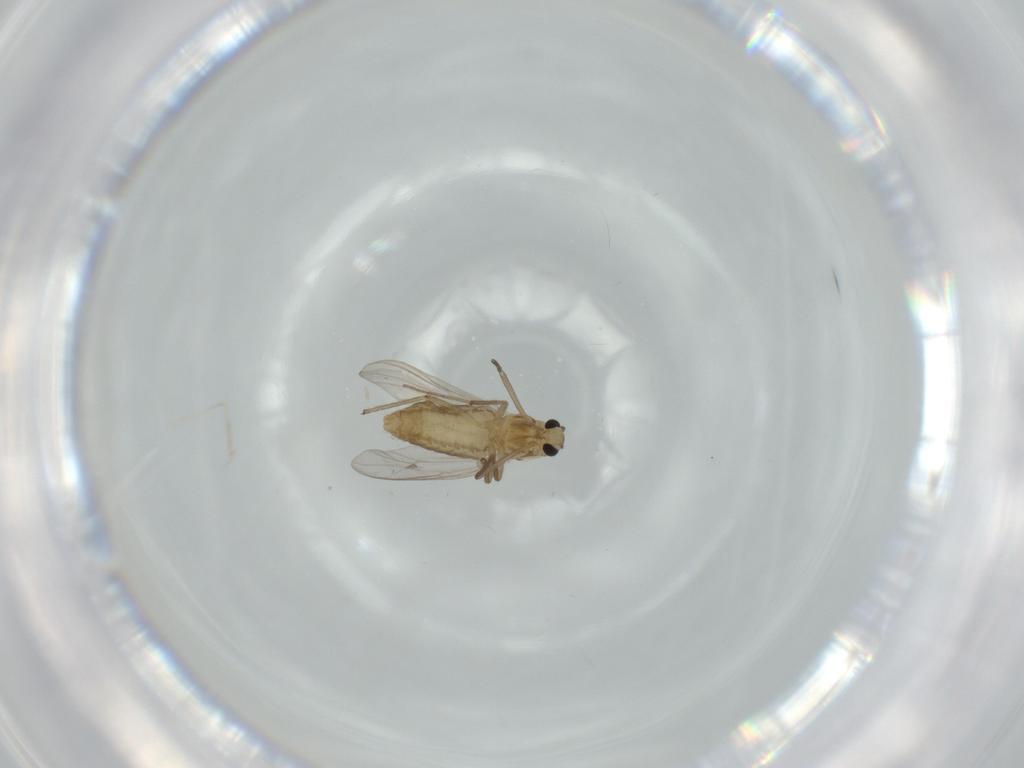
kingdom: Animalia
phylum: Arthropoda
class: Insecta
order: Diptera
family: Chironomidae
